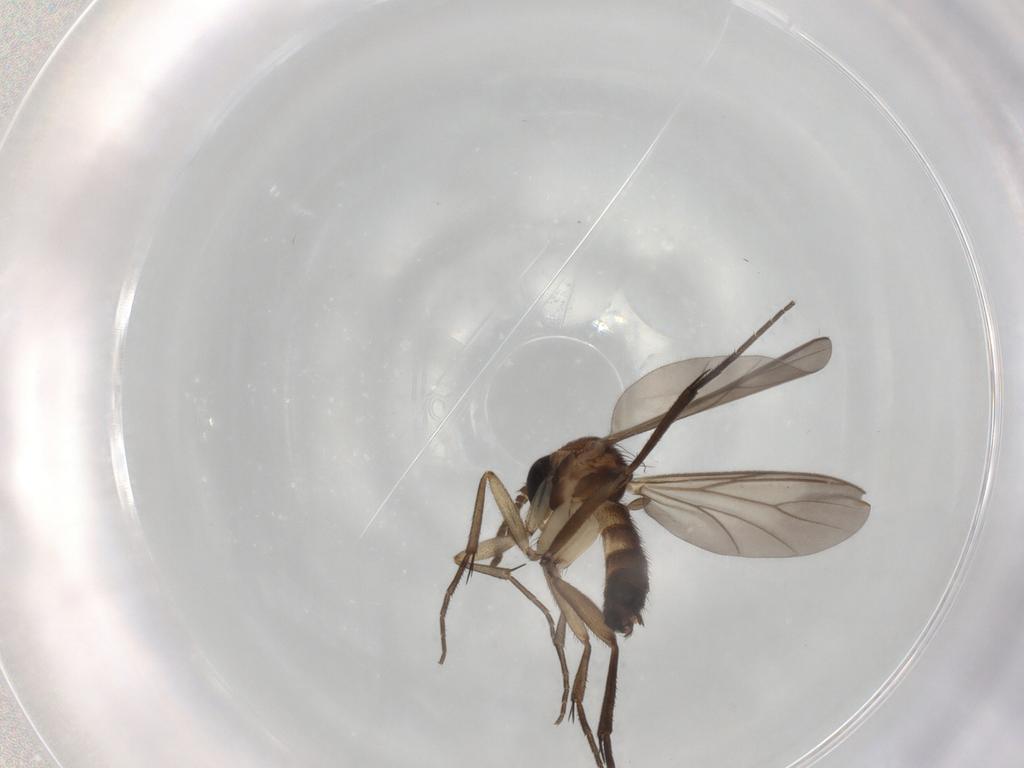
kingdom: Animalia
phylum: Arthropoda
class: Insecta
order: Diptera
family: Mycetophilidae
